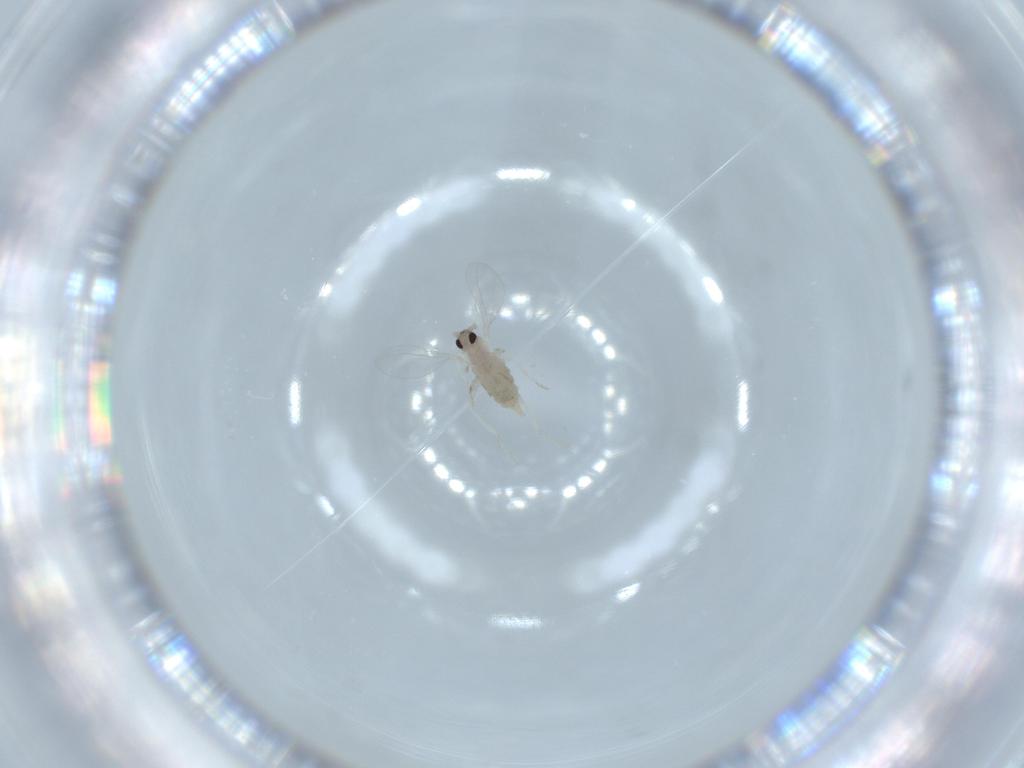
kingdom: Animalia
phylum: Arthropoda
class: Insecta
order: Diptera
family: Cecidomyiidae
